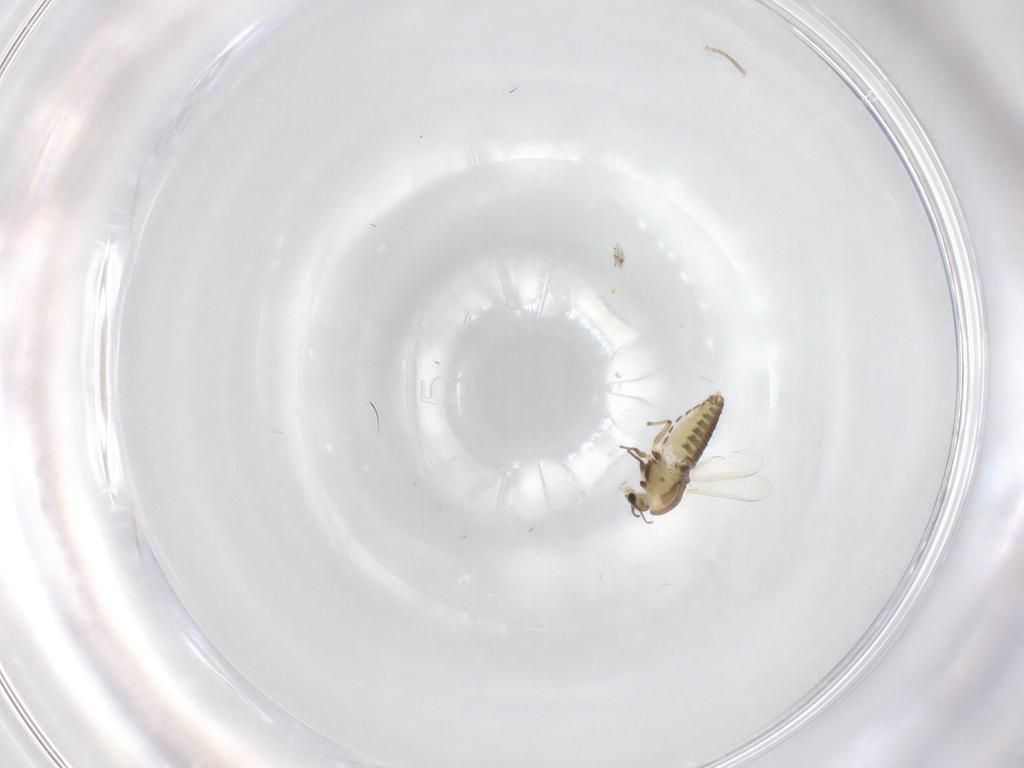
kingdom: Animalia
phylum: Arthropoda
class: Insecta
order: Diptera
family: Chironomidae
